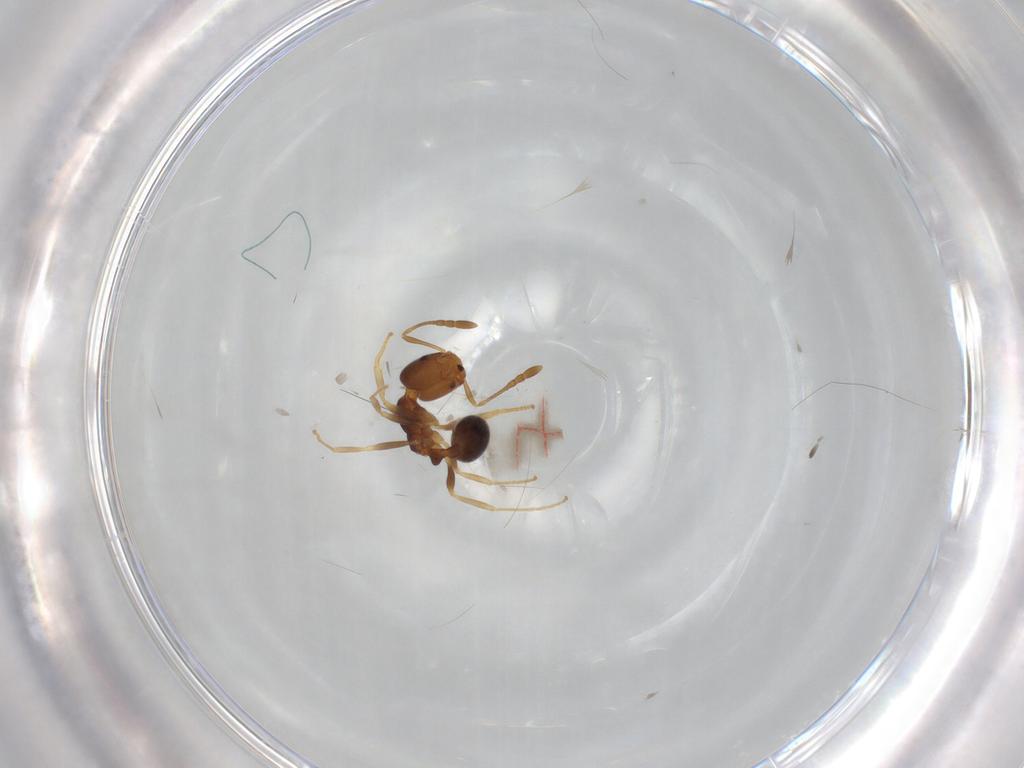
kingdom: Animalia
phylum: Arthropoda
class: Insecta
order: Hymenoptera
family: Formicidae
